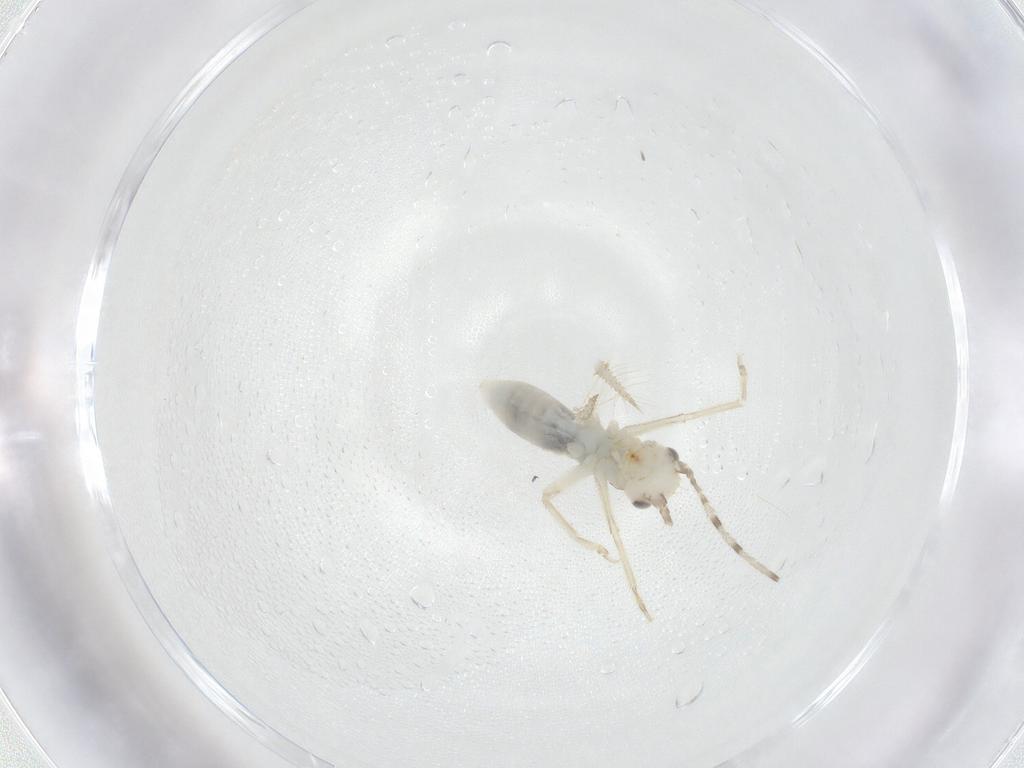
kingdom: Animalia
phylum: Arthropoda
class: Insecta
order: Orthoptera
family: Trigonidiidae
